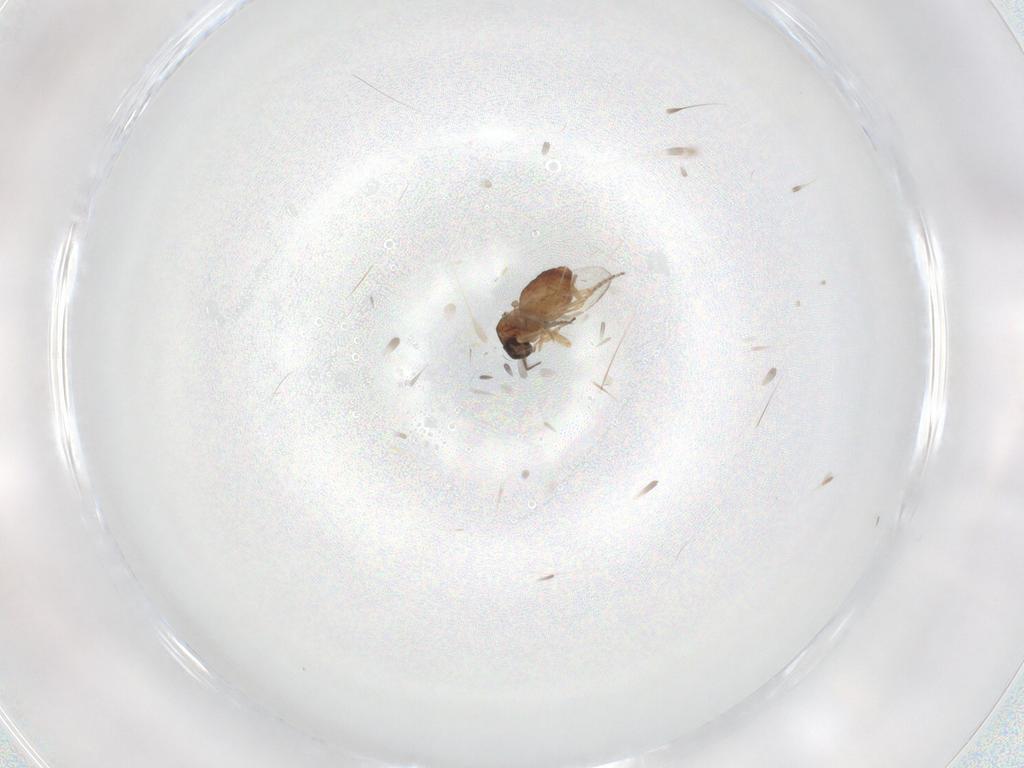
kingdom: Animalia
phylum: Arthropoda
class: Insecta
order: Diptera
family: Ceratopogonidae
